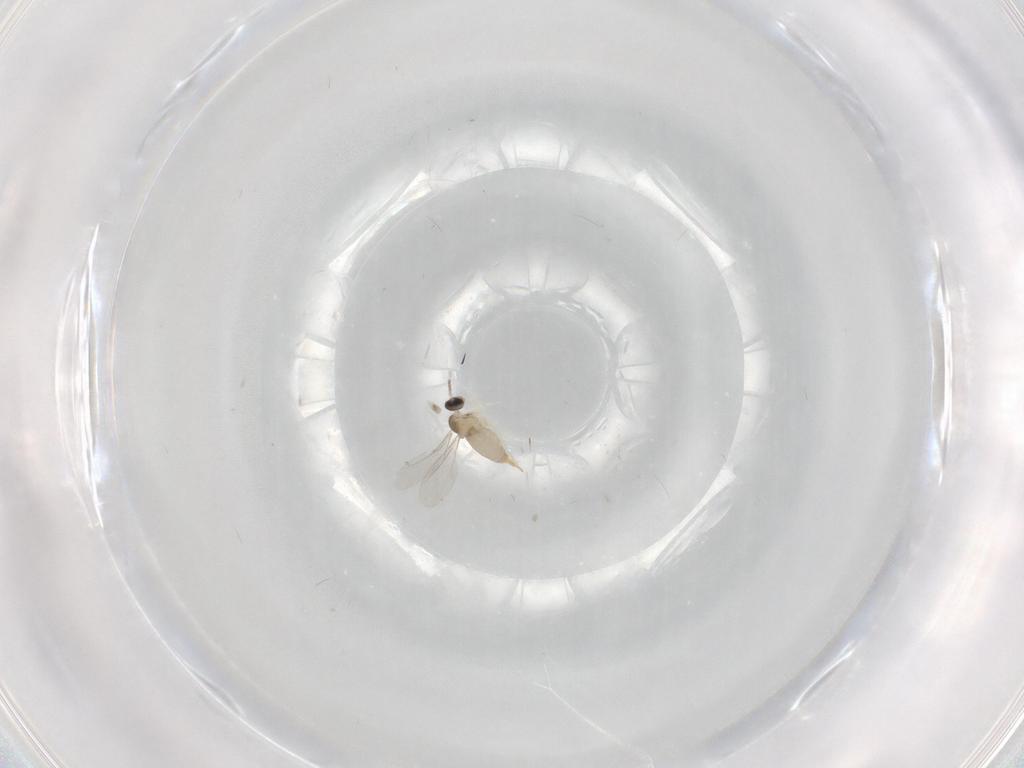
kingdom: Animalia
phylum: Arthropoda
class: Insecta
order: Diptera
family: Cecidomyiidae
